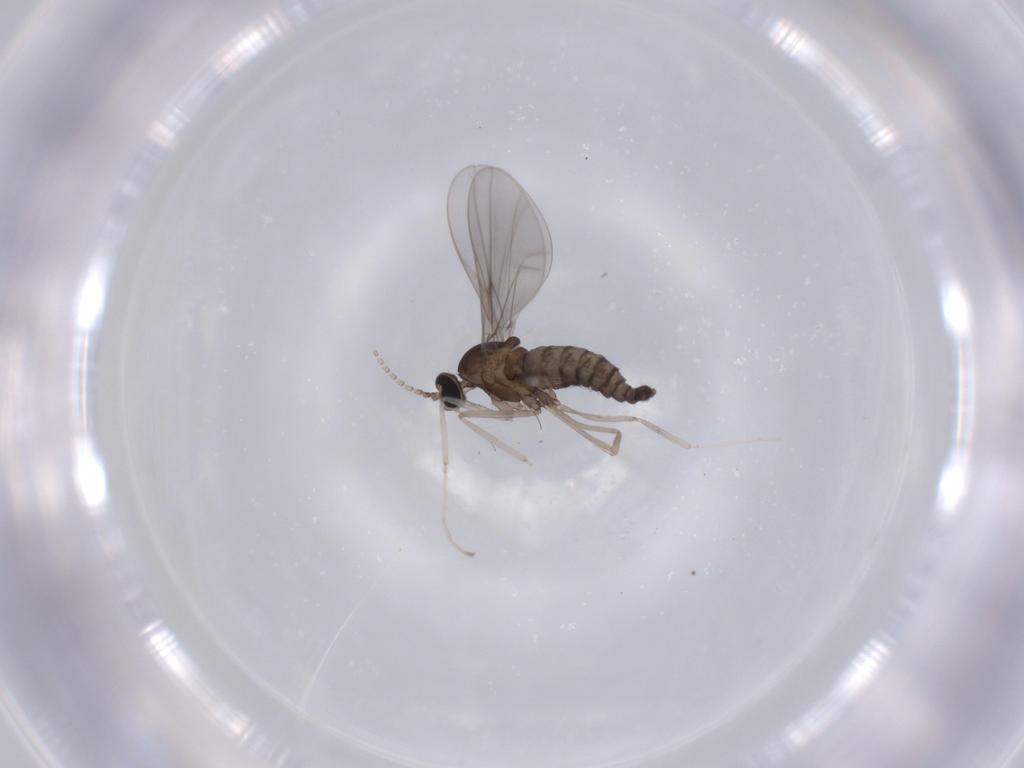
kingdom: Animalia
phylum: Arthropoda
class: Insecta
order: Diptera
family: Cecidomyiidae
